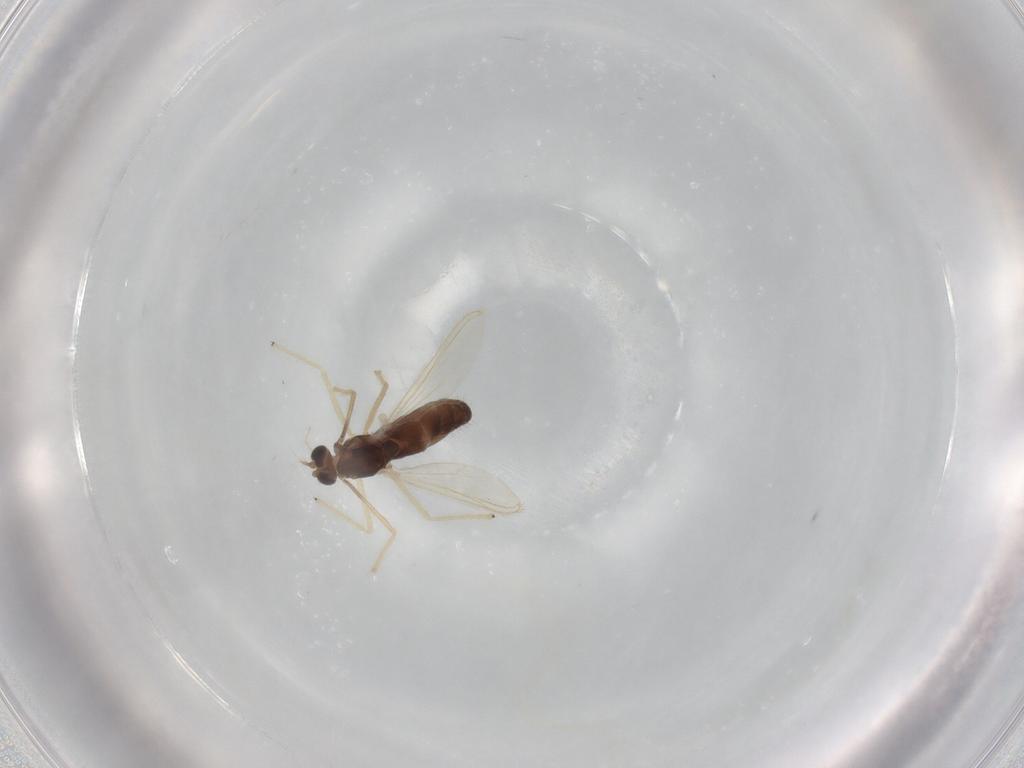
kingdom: Animalia
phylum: Arthropoda
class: Insecta
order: Diptera
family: Chironomidae
